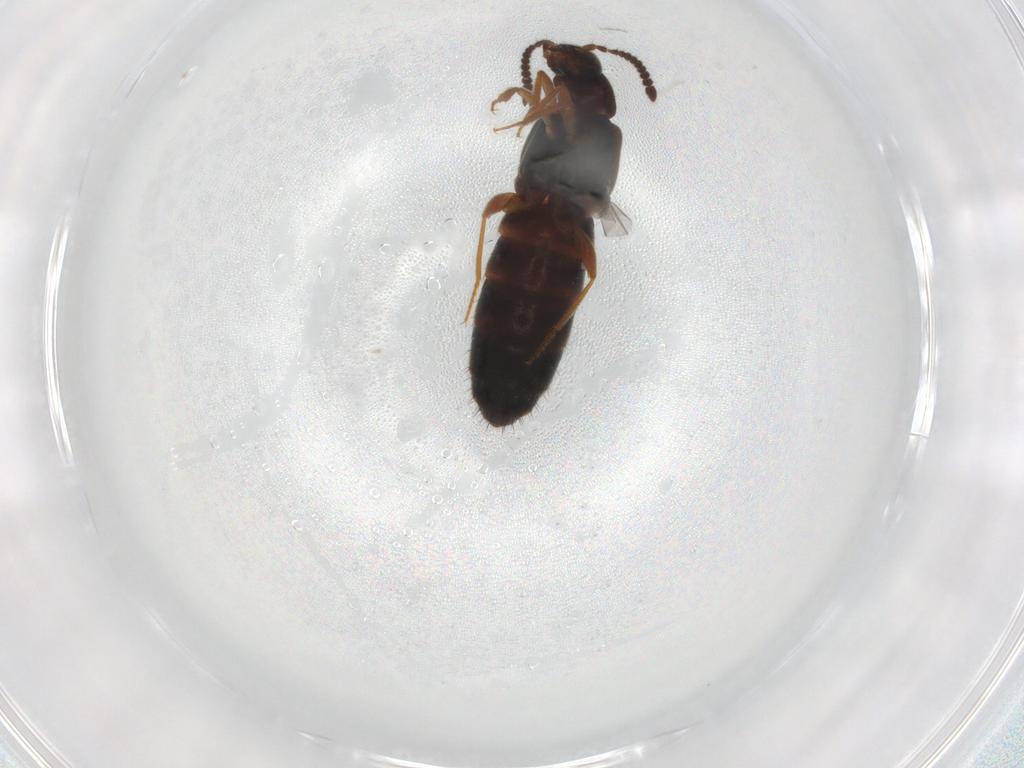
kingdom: Animalia
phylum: Arthropoda
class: Insecta
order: Coleoptera
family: Staphylinidae
